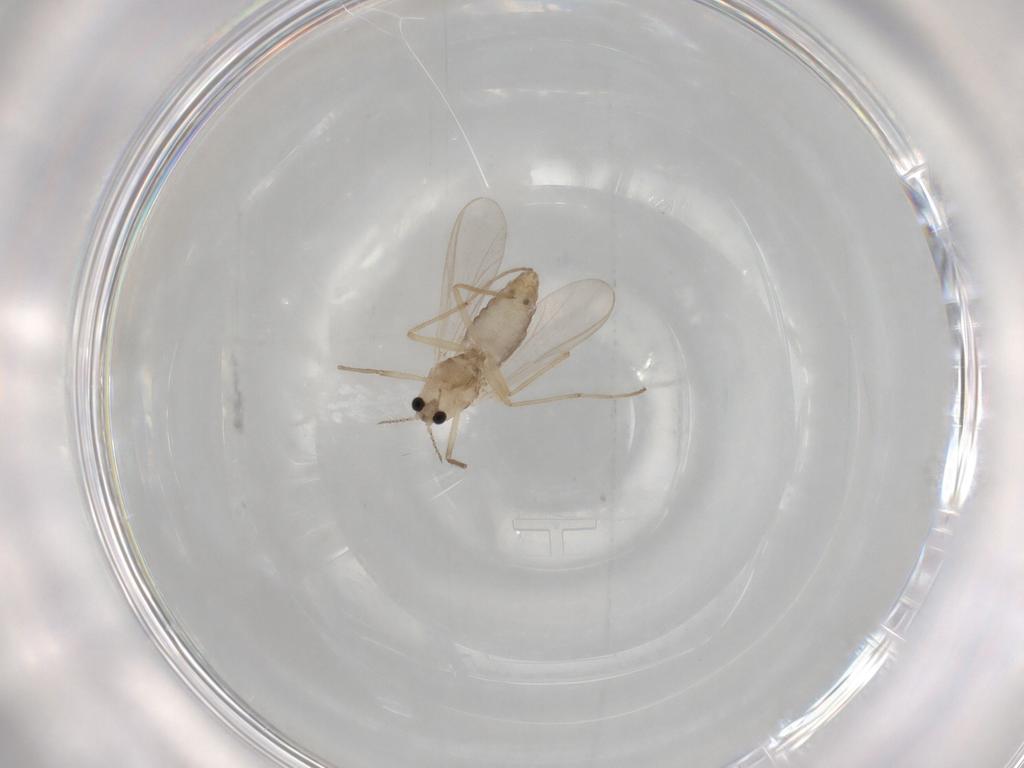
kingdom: Animalia
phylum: Arthropoda
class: Insecta
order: Diptera
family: Chironomidae
